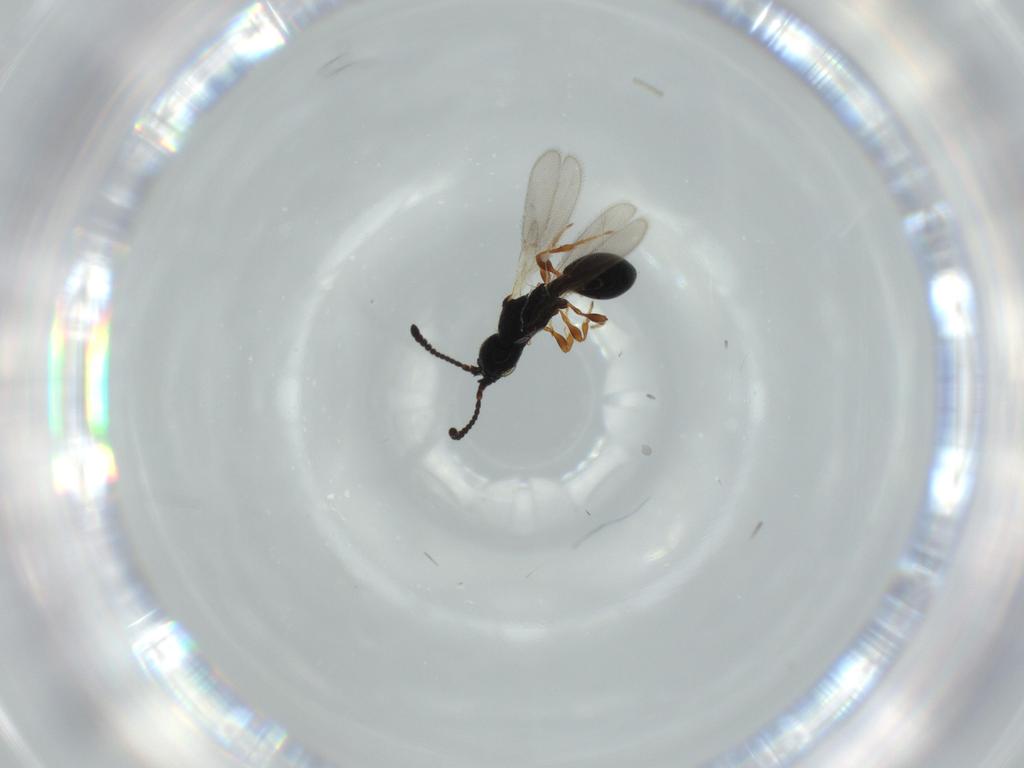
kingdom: Animalia
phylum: Arthropoda
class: Insecta
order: Hymenoptera
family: Diapriidae
